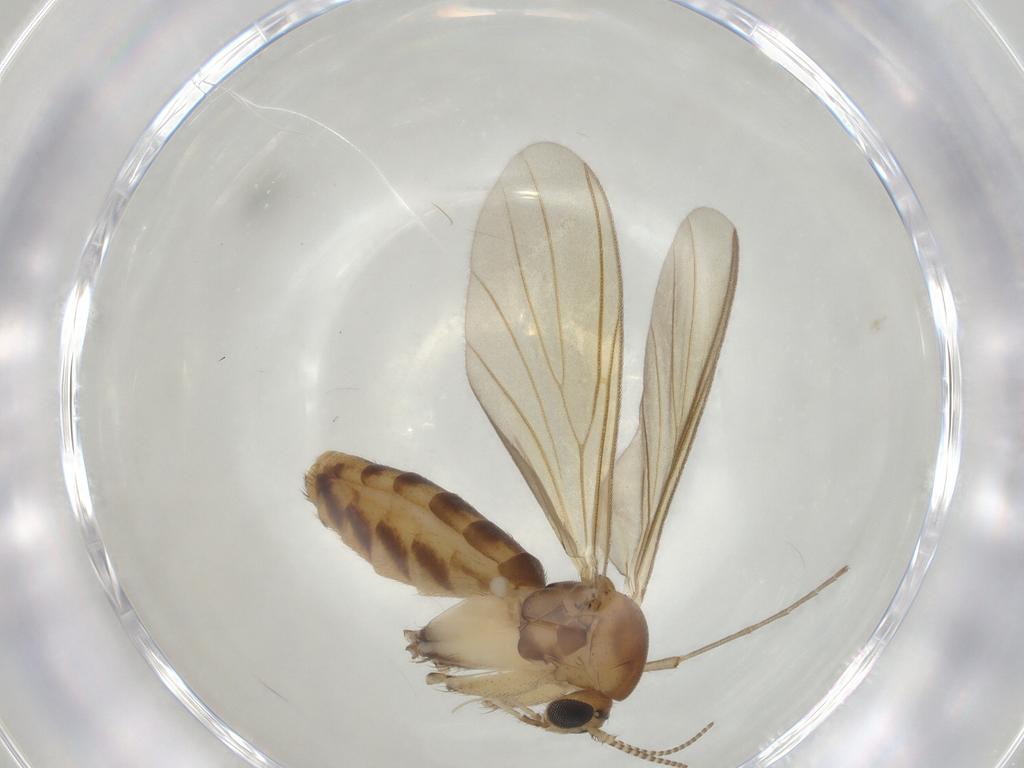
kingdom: Animalia
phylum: Arthropoda
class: Insecta
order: Diptera
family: Mycetophilidae
